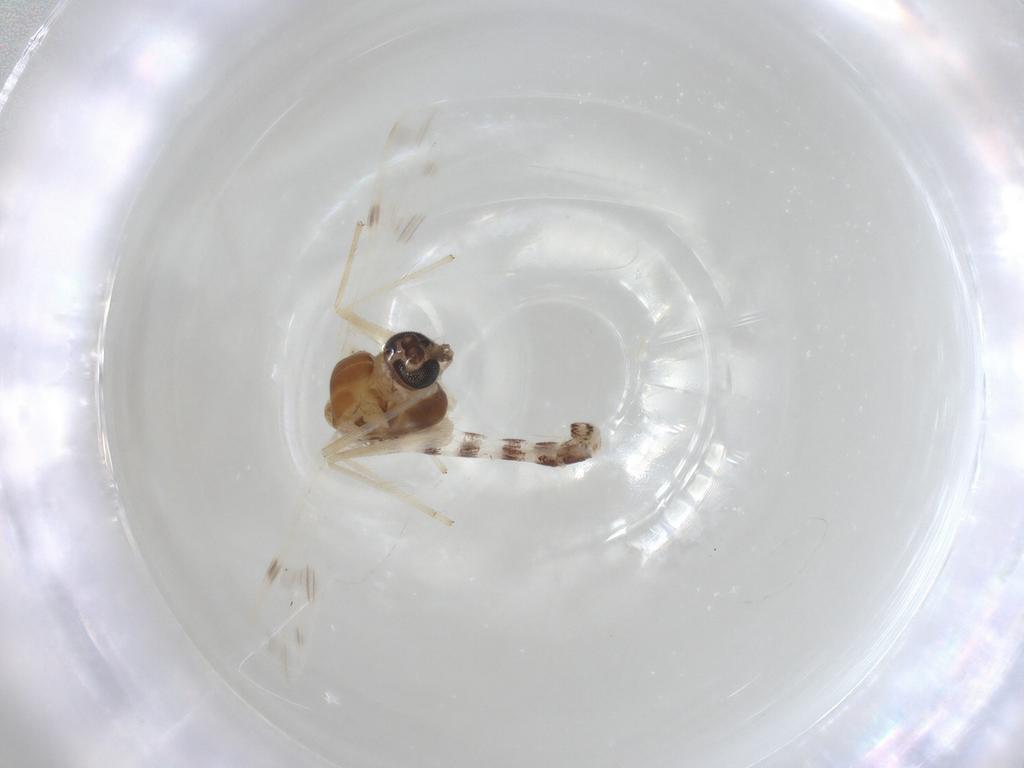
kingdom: Animalia
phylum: Arthropoda
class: Insecta
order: Diptera
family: Chironomidae
